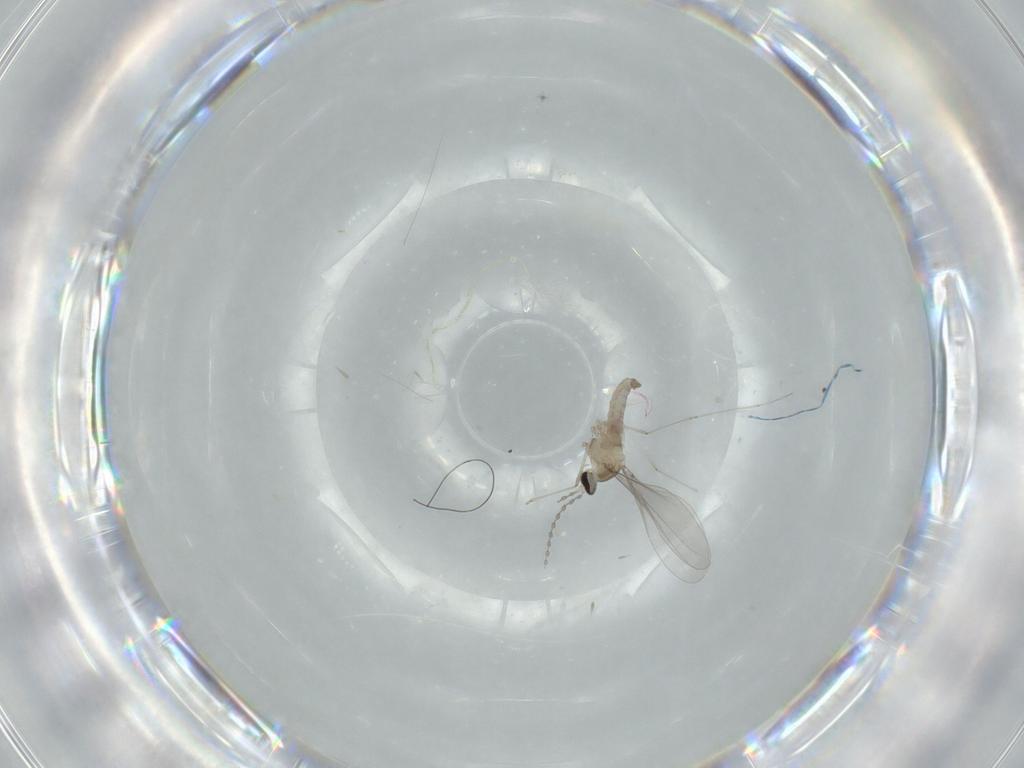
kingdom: Animalia
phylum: Arthropoda
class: Insecta
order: Diptera
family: Cecidomyiidae
